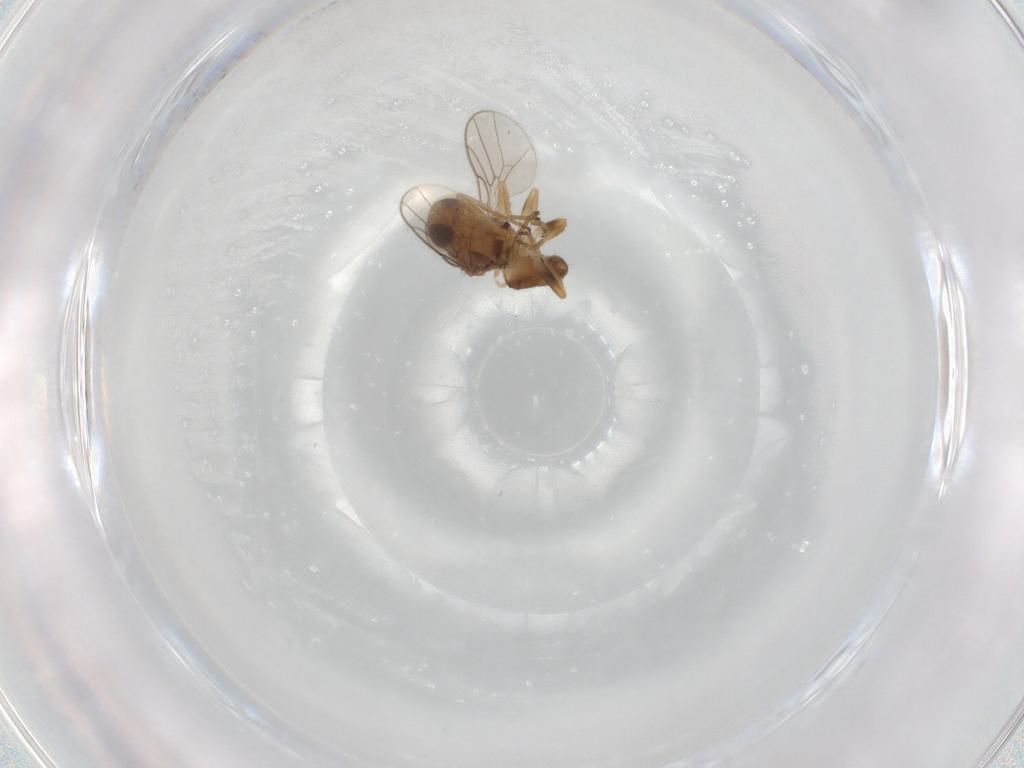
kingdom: Animalia
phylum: Arthropoda
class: Insecta
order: Diptera
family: Chloropidae
